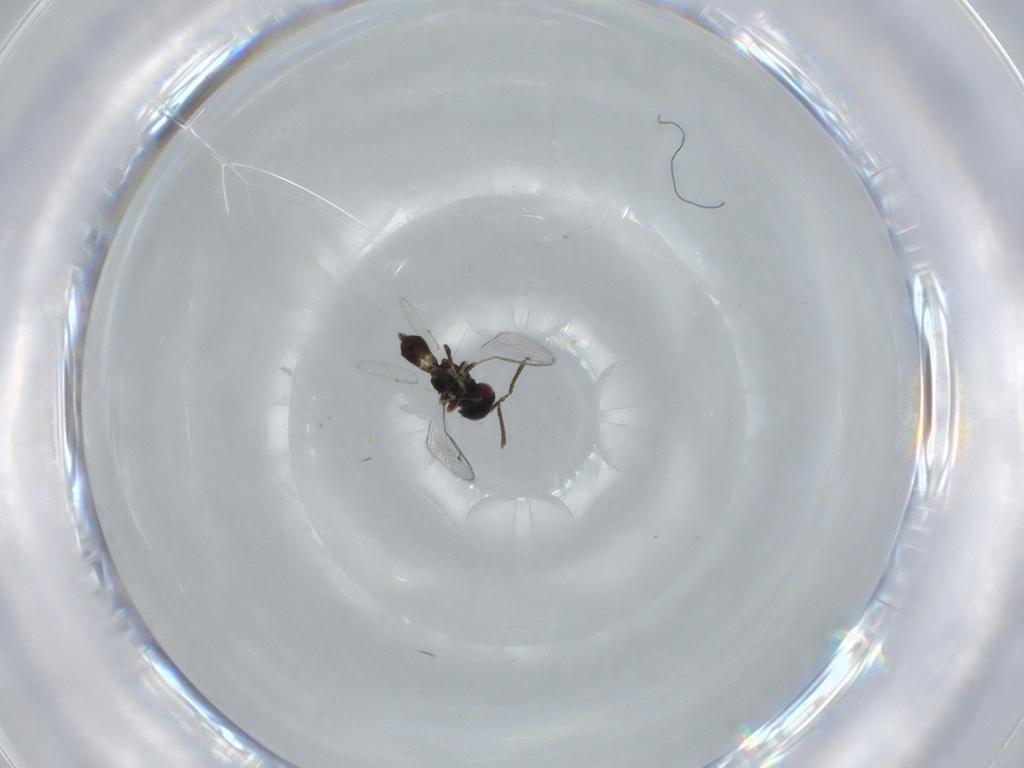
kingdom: Animalia
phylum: Arthropoda
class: Insecta
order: Hymenoptera
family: Pteromalidae
